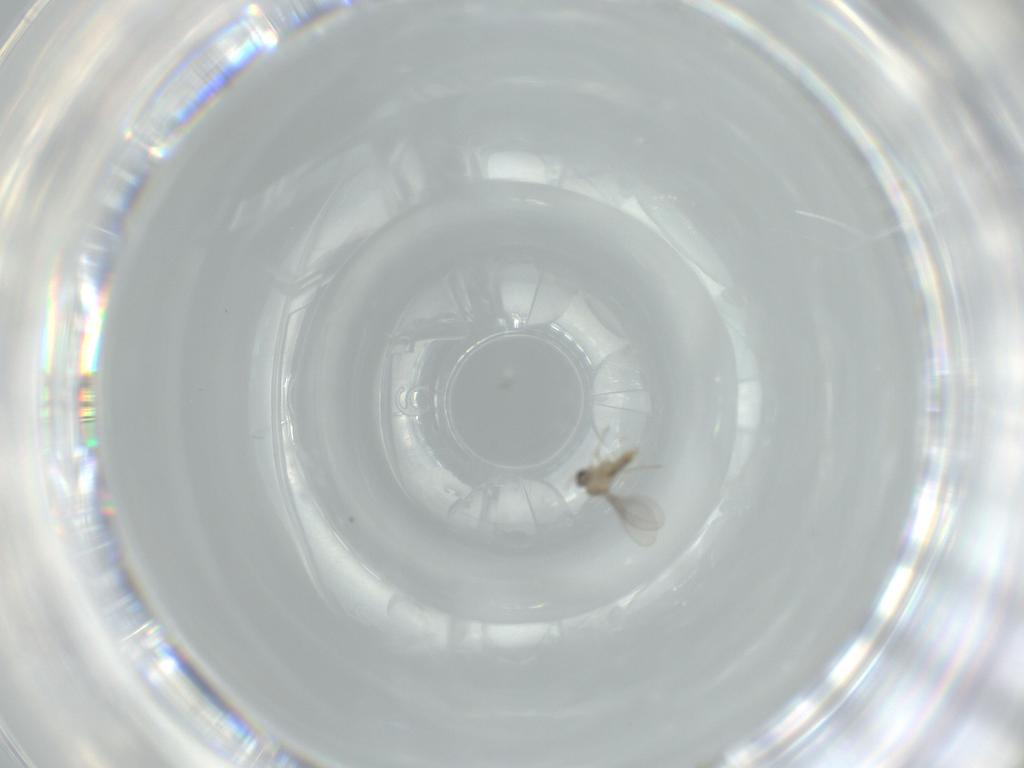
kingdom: Animalia
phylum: Arthropoda
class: Insecta
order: Diptera
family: Cecidomyiidae
